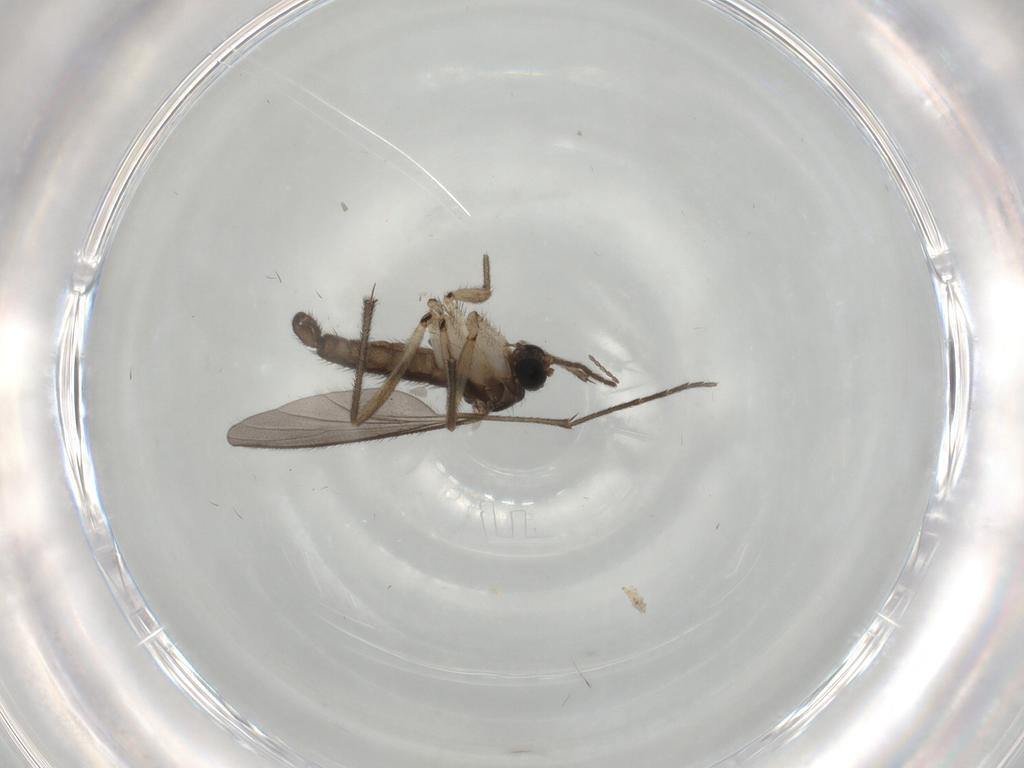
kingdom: Animalia
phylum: Arthropoda
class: Insecta
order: Diptera
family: Sciaridae
